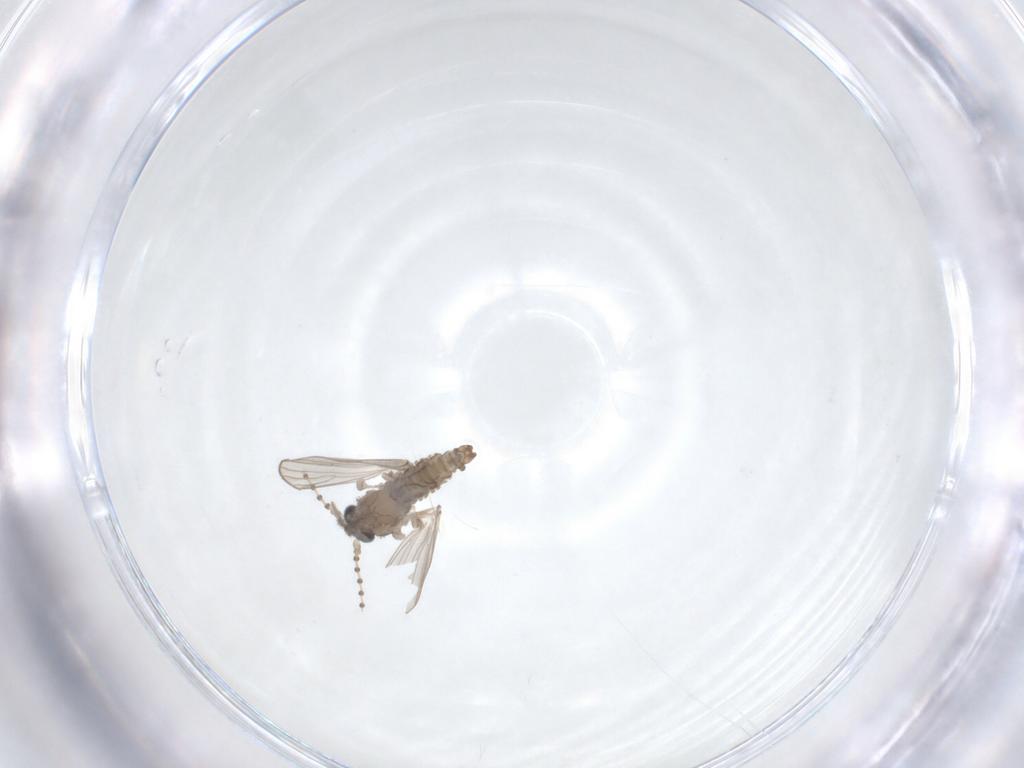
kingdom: Animalia
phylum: Arthropoda
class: Insecta
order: Diptera
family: Psychodidae
